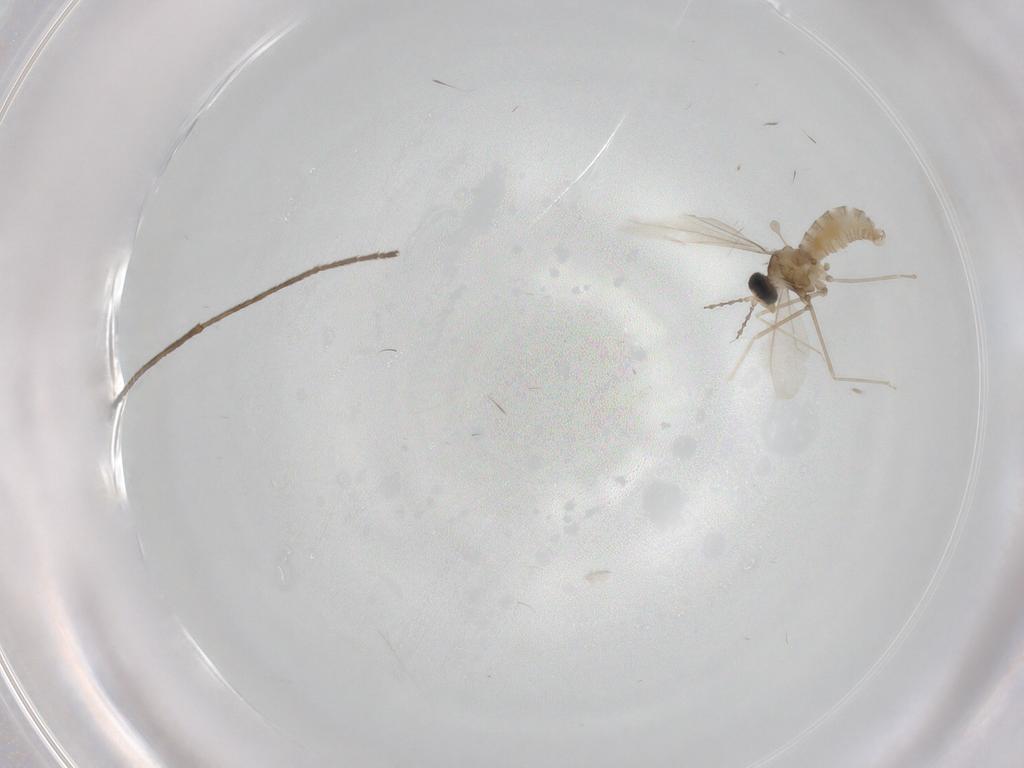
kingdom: Animalia
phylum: Arthropoda
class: Insecta
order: Diptera
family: Cecidomyiidae
